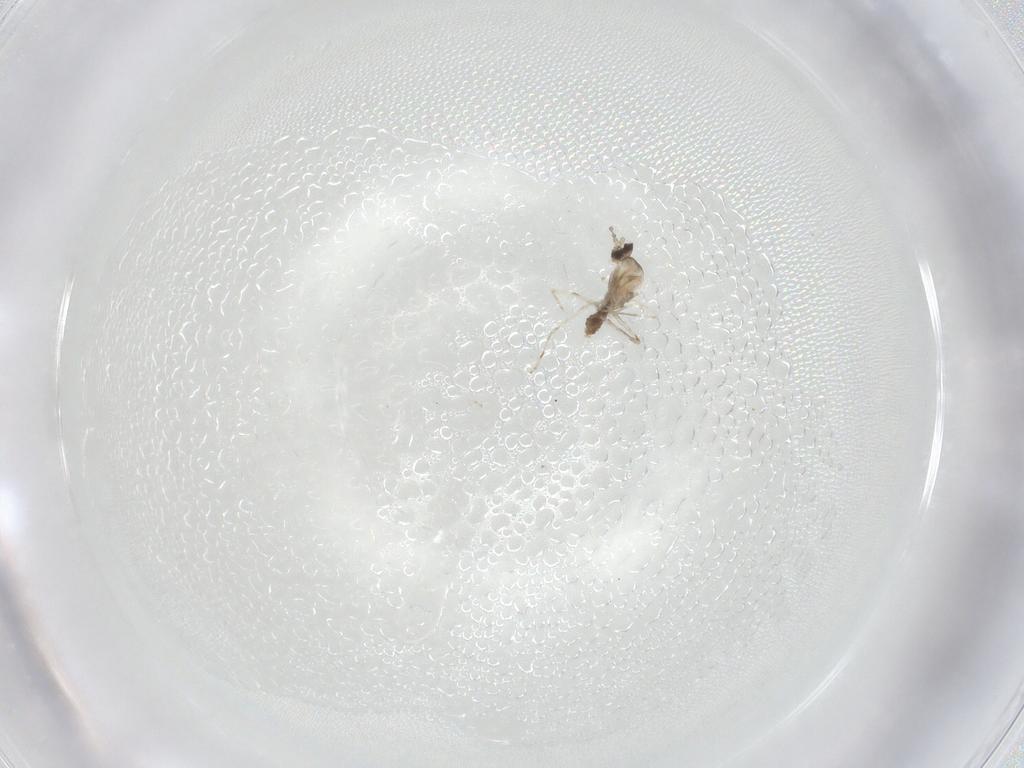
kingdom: Animalia
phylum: Arthropoda
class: Insecta
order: Diptera
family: Cecidomyiidae
